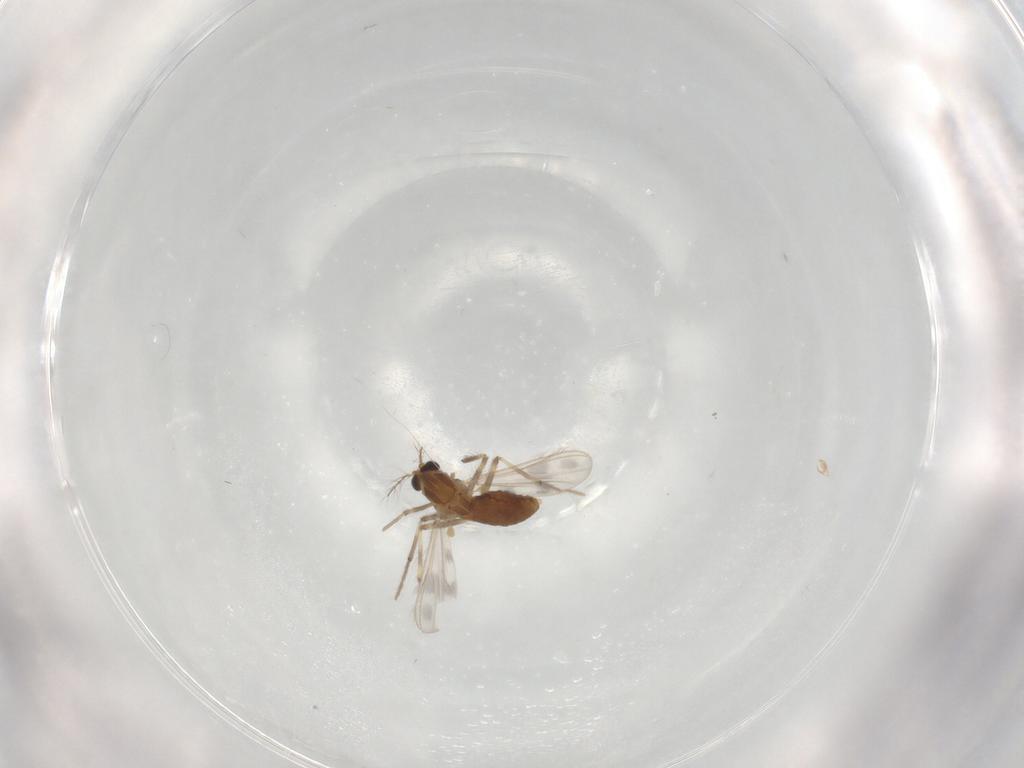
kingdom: Animalia
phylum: Arthropoda
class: Insecta
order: Diptera
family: Chironomidae
